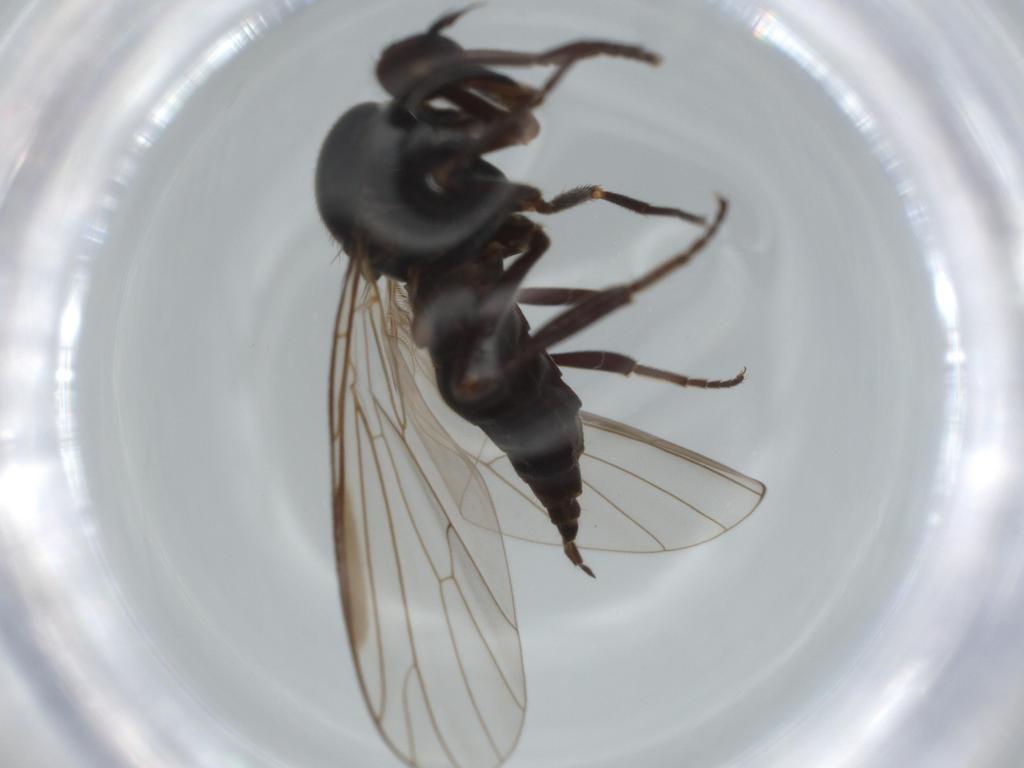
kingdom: Animalia
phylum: Arthropoda
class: Insecta
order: Diptera
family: Empididae
